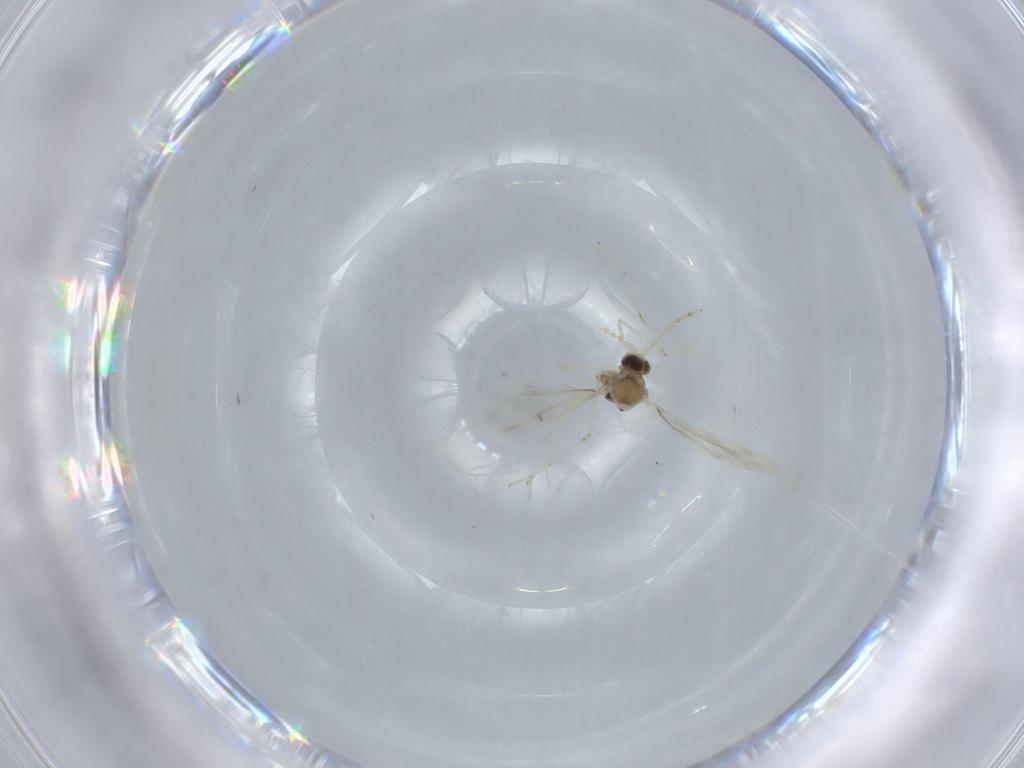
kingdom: Animalia
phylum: Arthropoda
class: Insecta
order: Diptera
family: Cecidomyiidae
